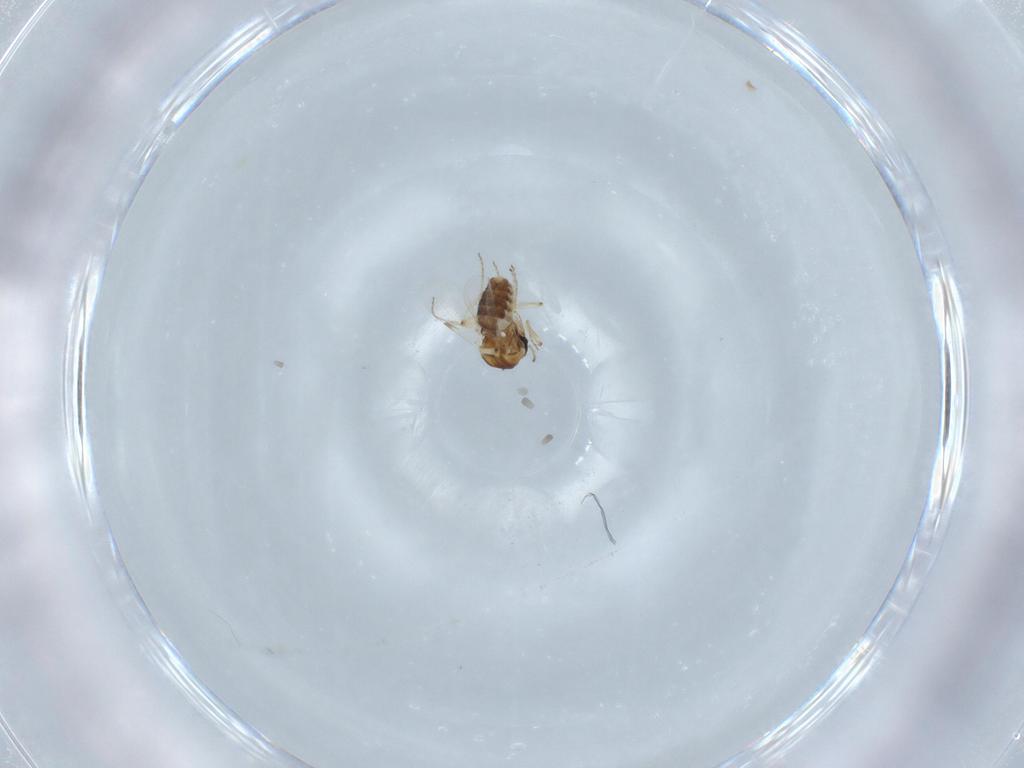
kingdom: Animalia
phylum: Arthropoda
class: Insecta
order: Diptera
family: Ceratopogonidae
